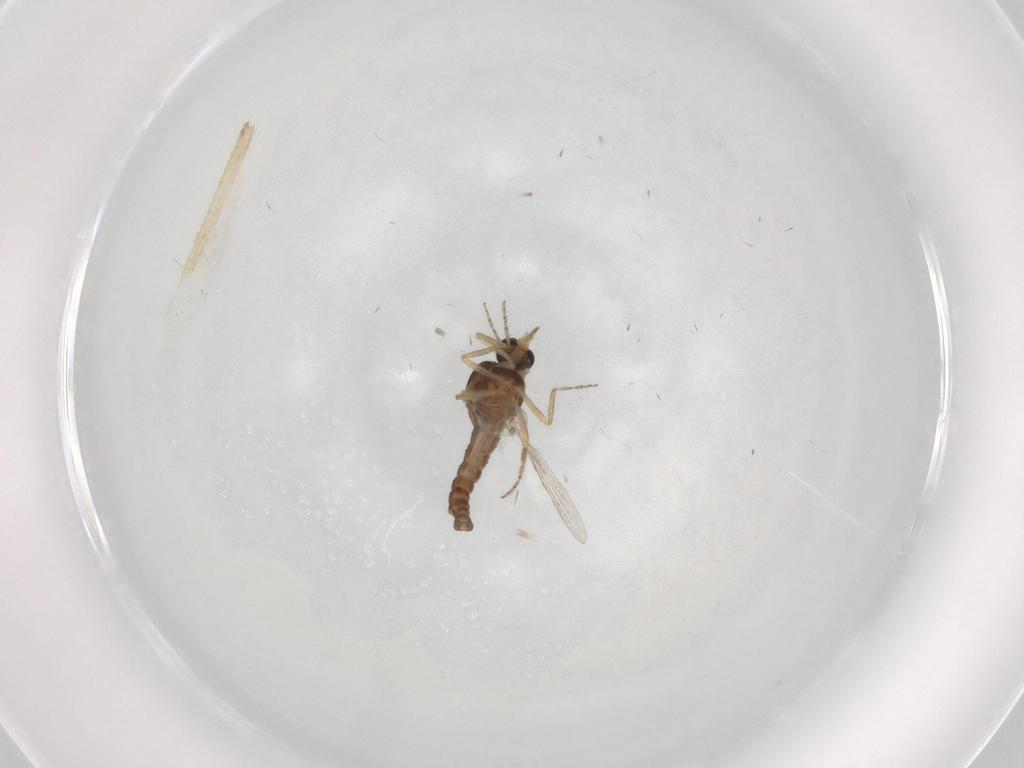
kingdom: Animalia
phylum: Arthropoda
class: Insecta
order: Diptera
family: Ceratopogonidae
